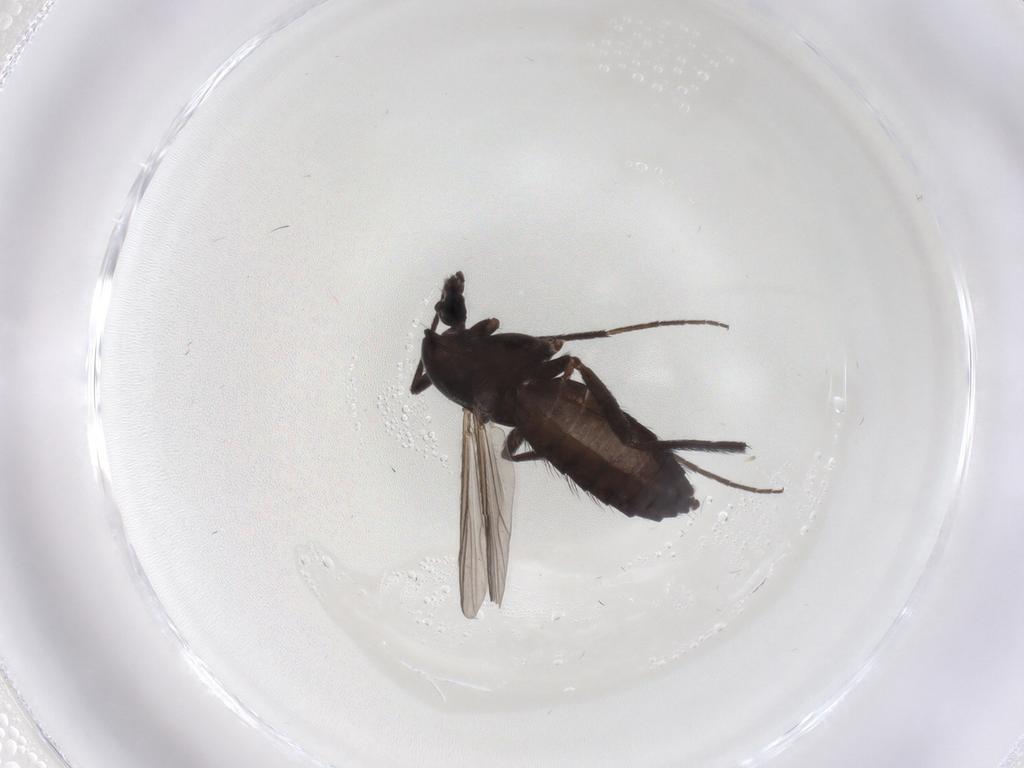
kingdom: Animalia
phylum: Arthropoda
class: Insecta
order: Diptera
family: Chironomidae
